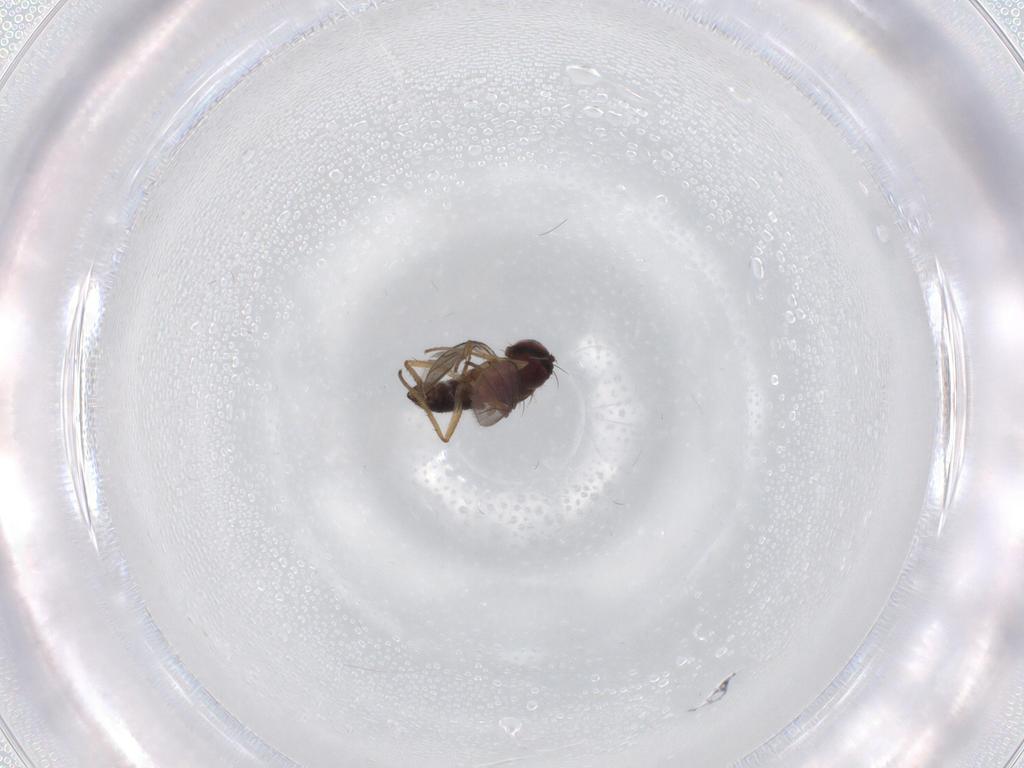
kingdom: Animalia
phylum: Arthropoda
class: Insecta
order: Diptera
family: Dolichopodidae
